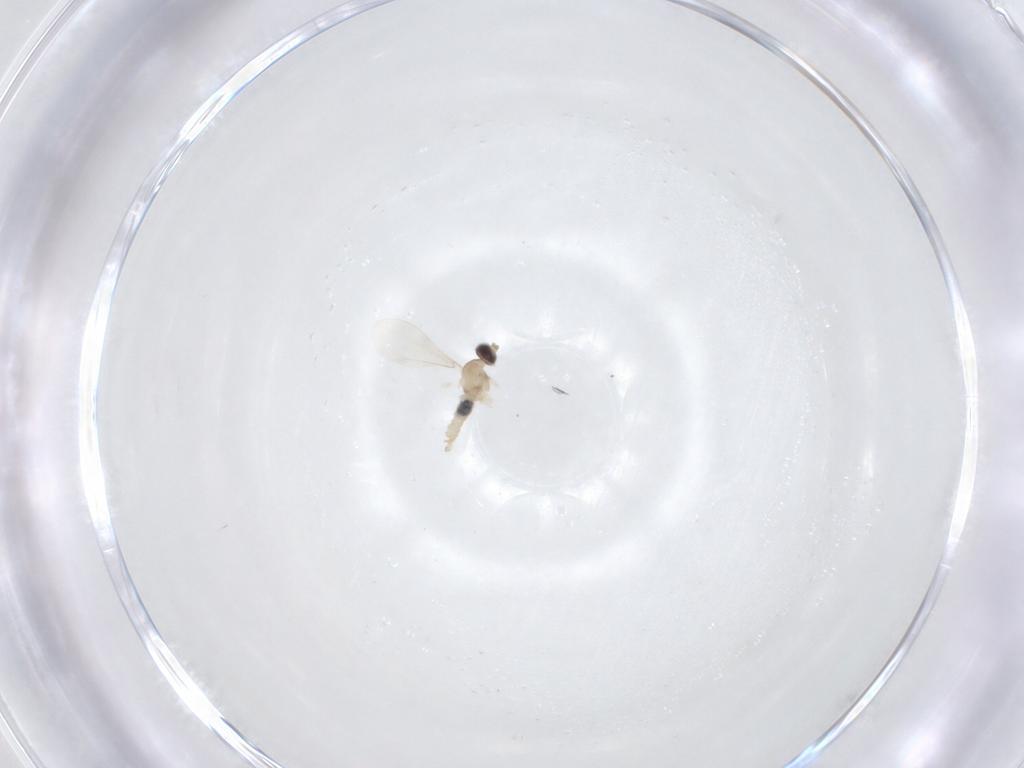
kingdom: Animalia
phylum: Arthropoda
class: Insecta
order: Diptera
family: Cecidomyiidae
